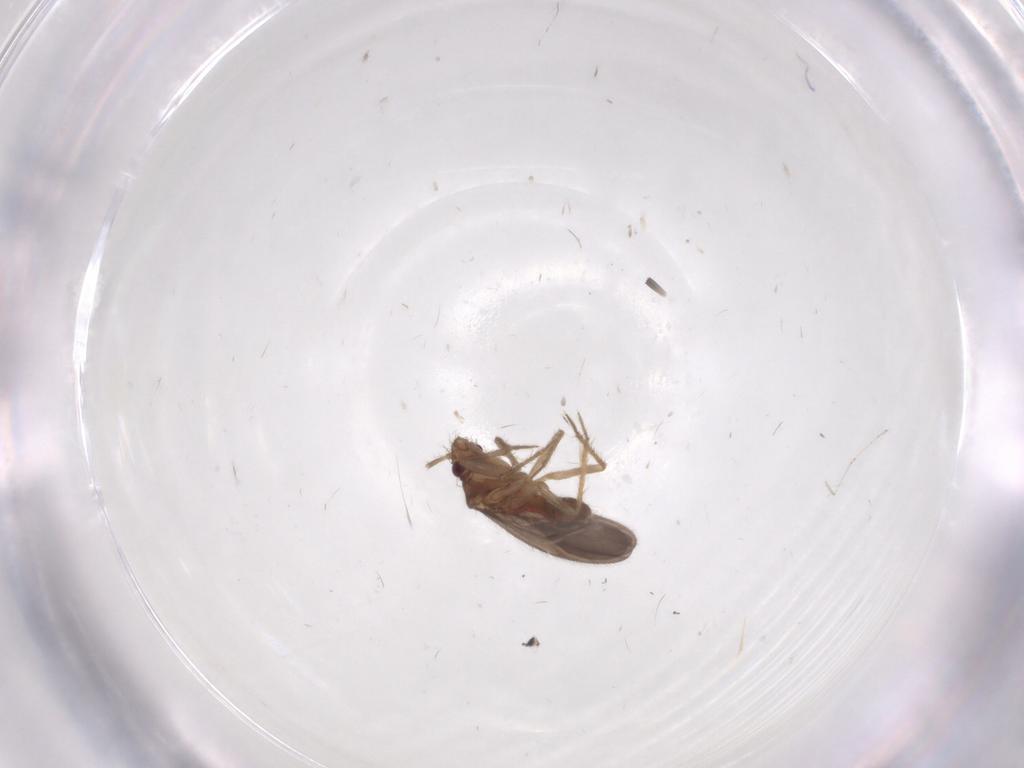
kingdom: Animalia
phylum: Arthropoda
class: Insecta
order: Hemiptera
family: Ceratocombidae
